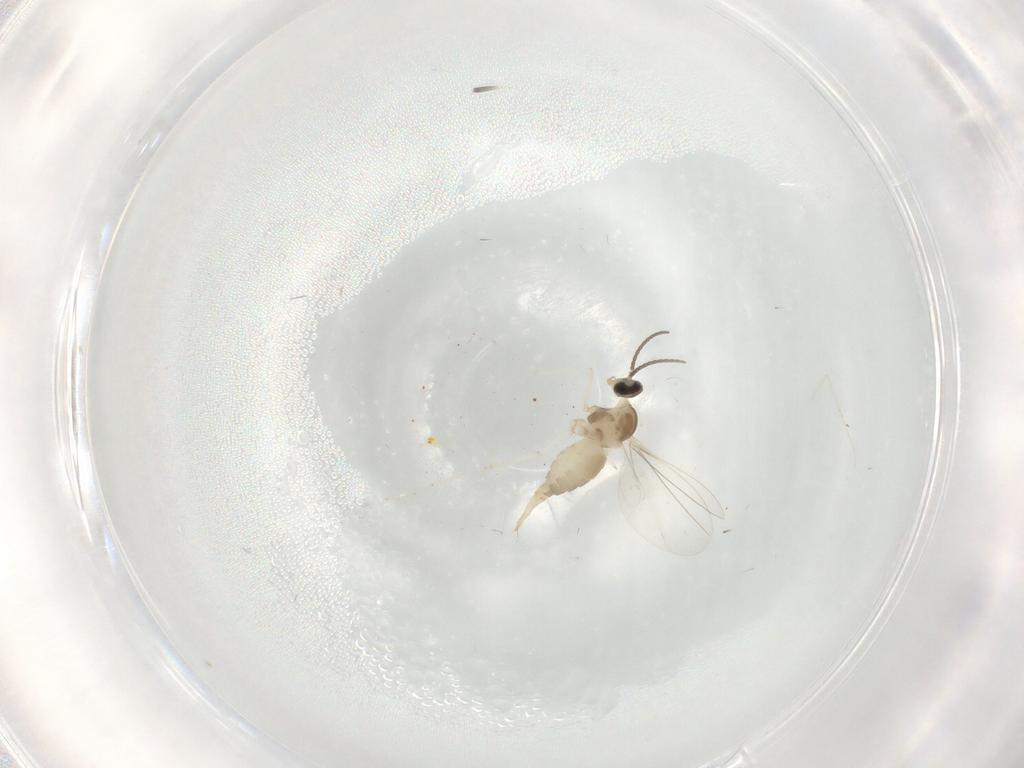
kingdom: Animalia
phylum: Arthropoda
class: Insecta
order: Diptera
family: Cecidomyiidae
